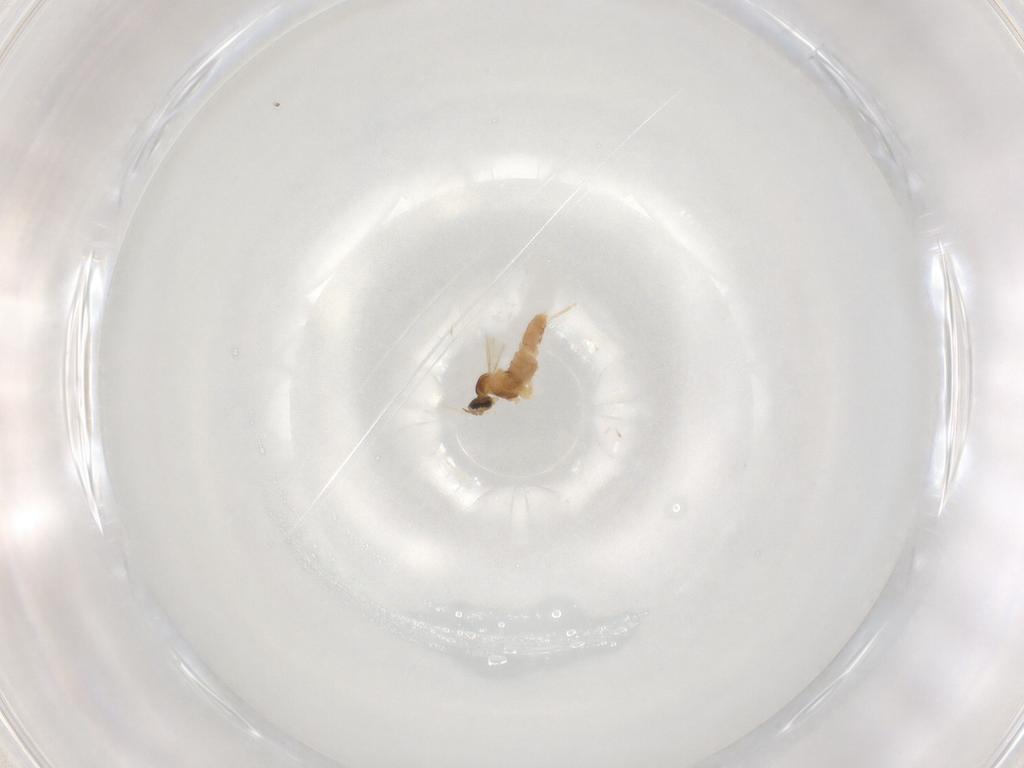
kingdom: Animalia
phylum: Arthropoda
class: Insecta
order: Diptera
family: Cecidomyiidae
